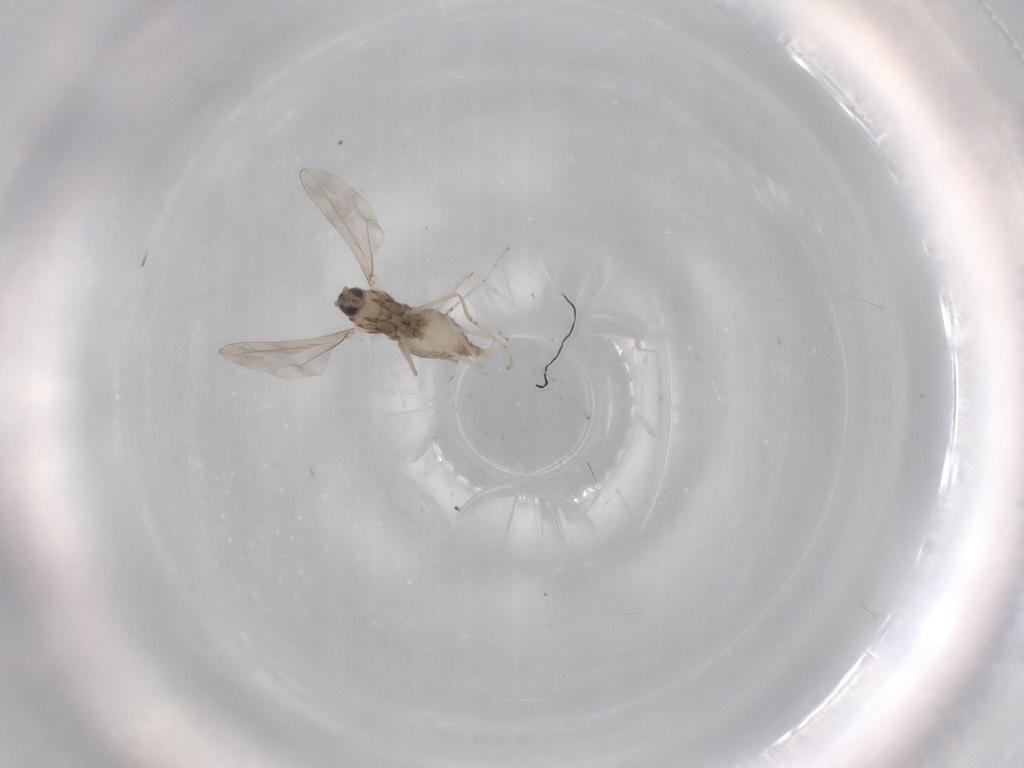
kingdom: Animalia
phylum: Arthropoda
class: Insecta
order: Diptera
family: Cecidomyiidae
